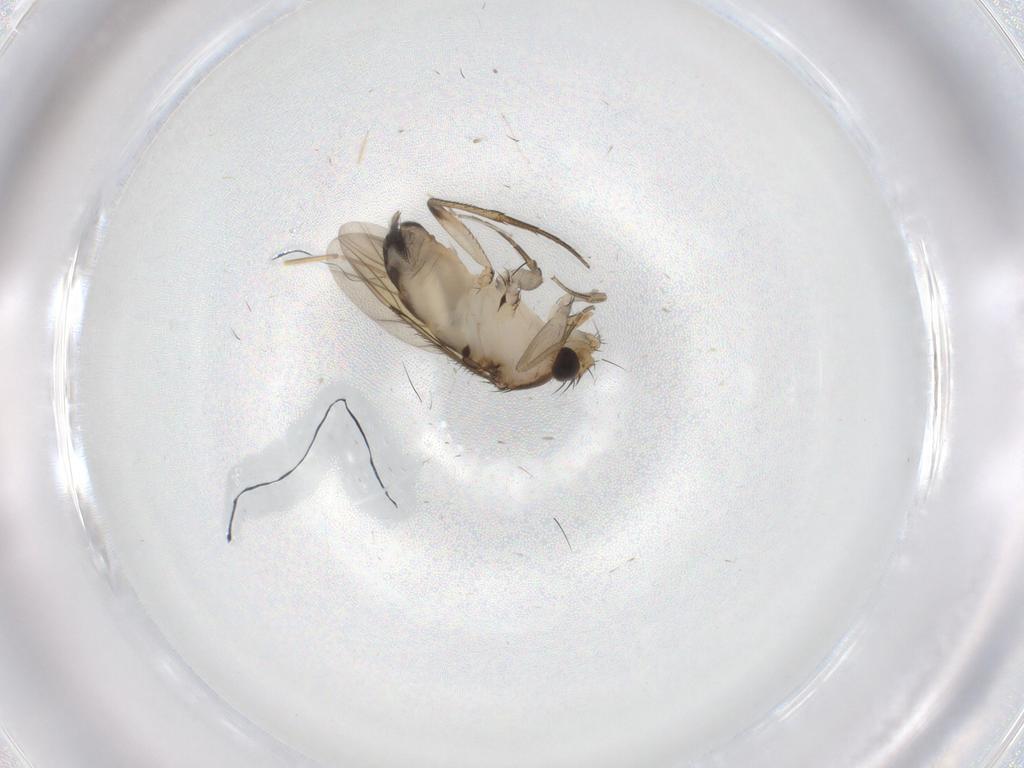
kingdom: Animalia
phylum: Arthropoda
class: Insecta
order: Diptera
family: Phoridae
